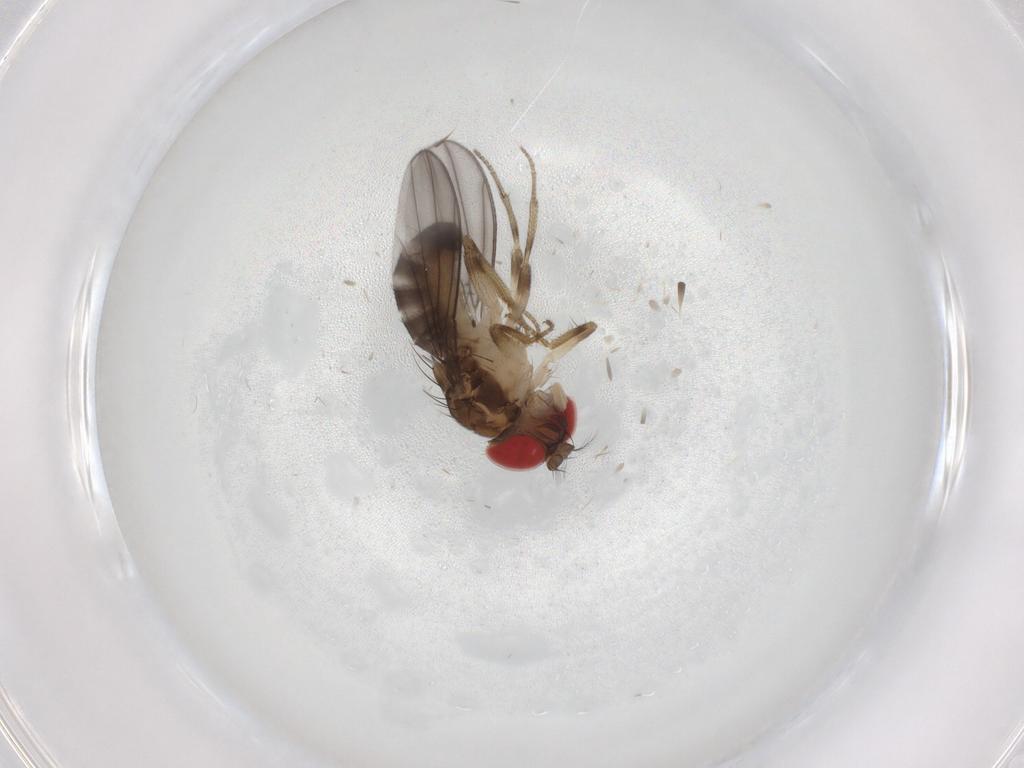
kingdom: Animalia
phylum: Arthropoda
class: Insecta
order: Diptera
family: Drosophilidae
